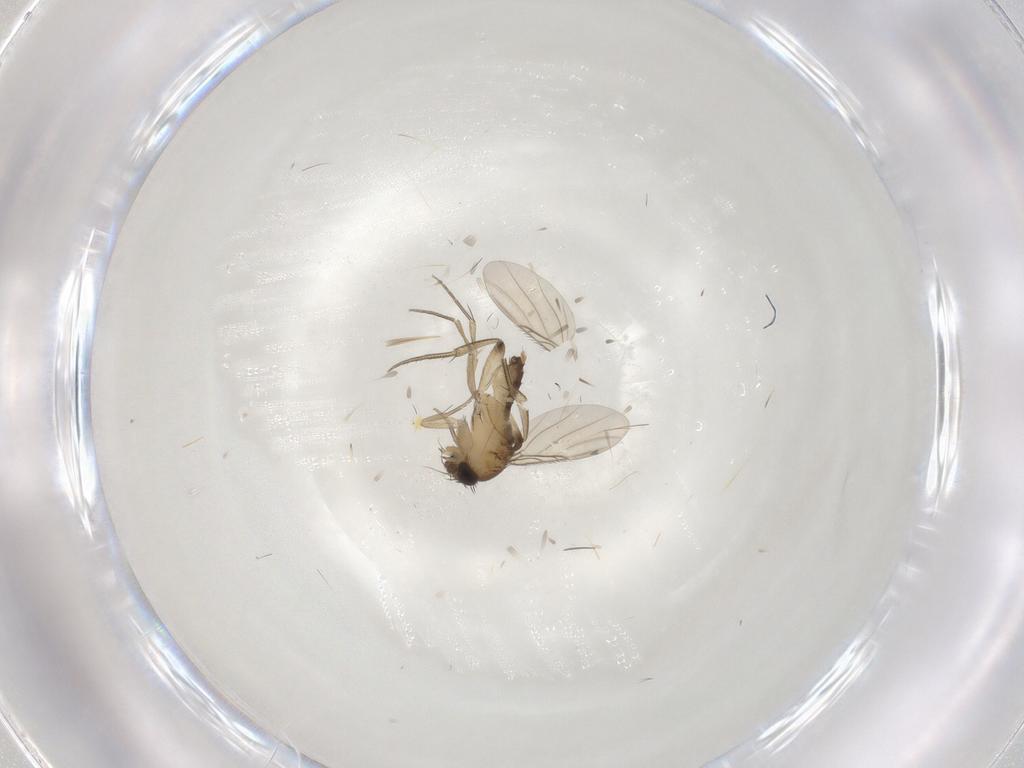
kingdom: Animalia
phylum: Arthropoda
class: Insecta
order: Diptera
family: Phoridae
